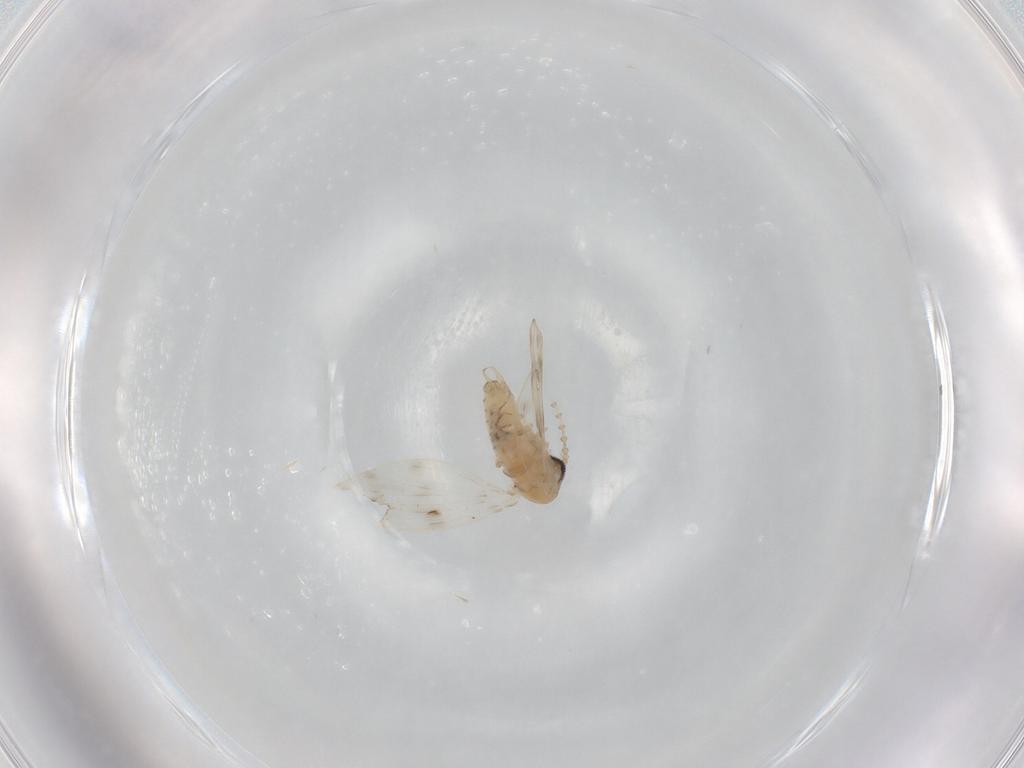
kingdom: Animalia
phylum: Arthropoda
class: Insecta
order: Diptera
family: Psychodidae
